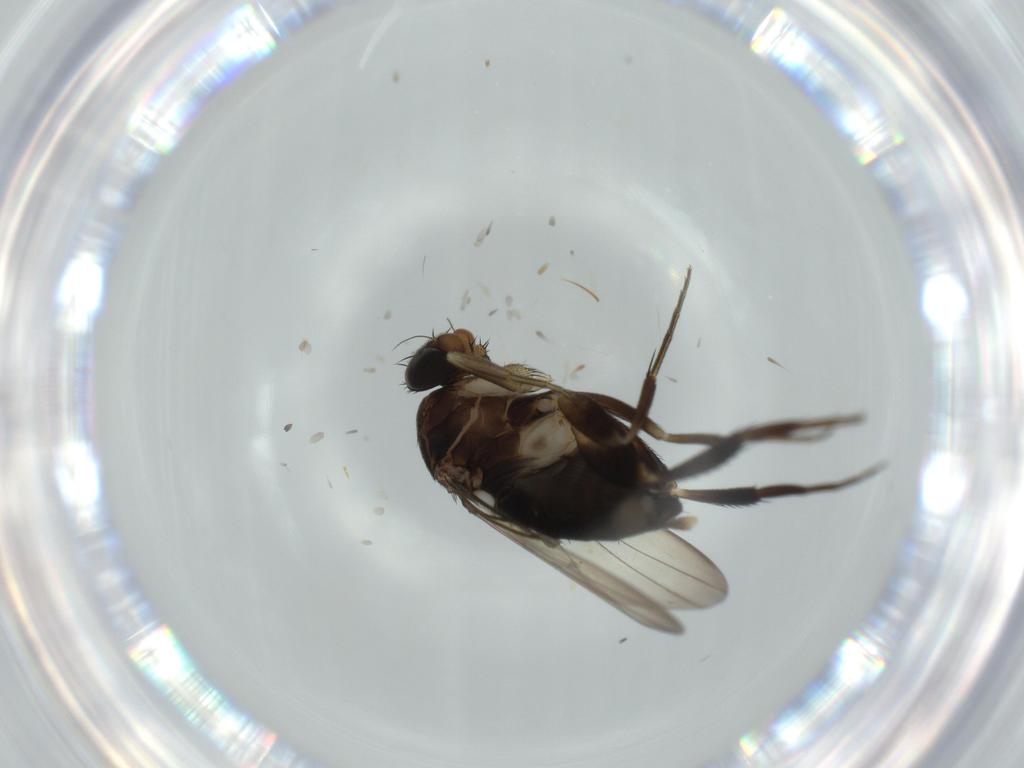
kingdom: Animalia
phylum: Arthropoda
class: Insecta
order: Diptera
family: Phoridae
